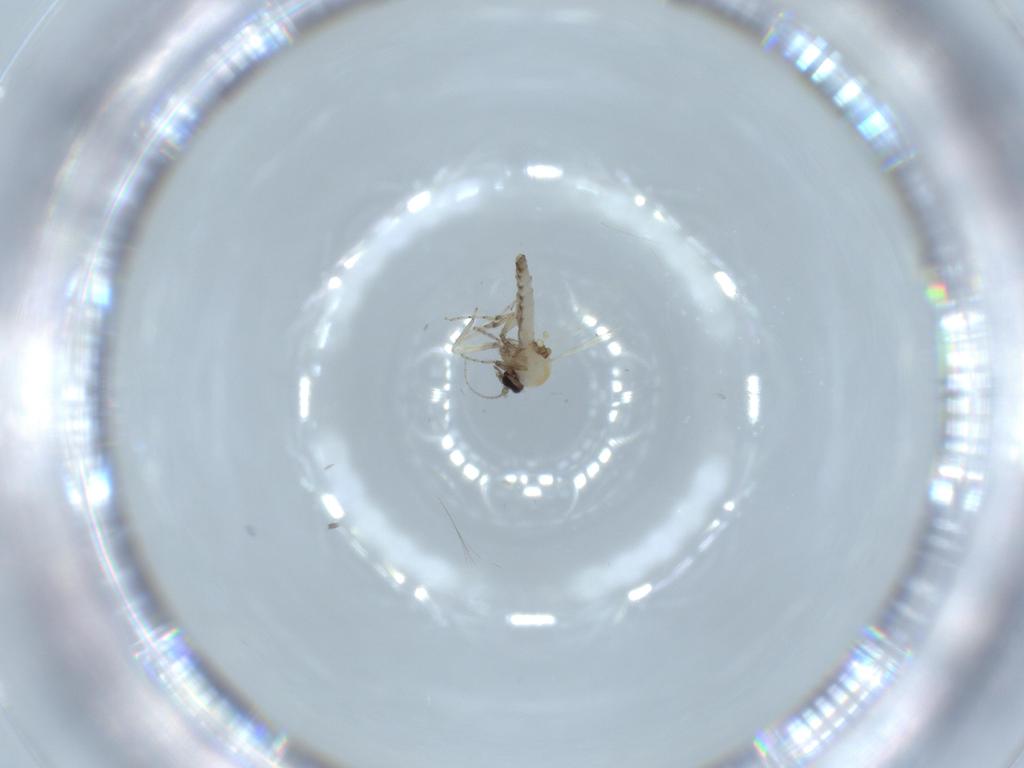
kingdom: Animalia
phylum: Arthropoda
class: Insecta
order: Diptera
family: Ceratopogonidae
